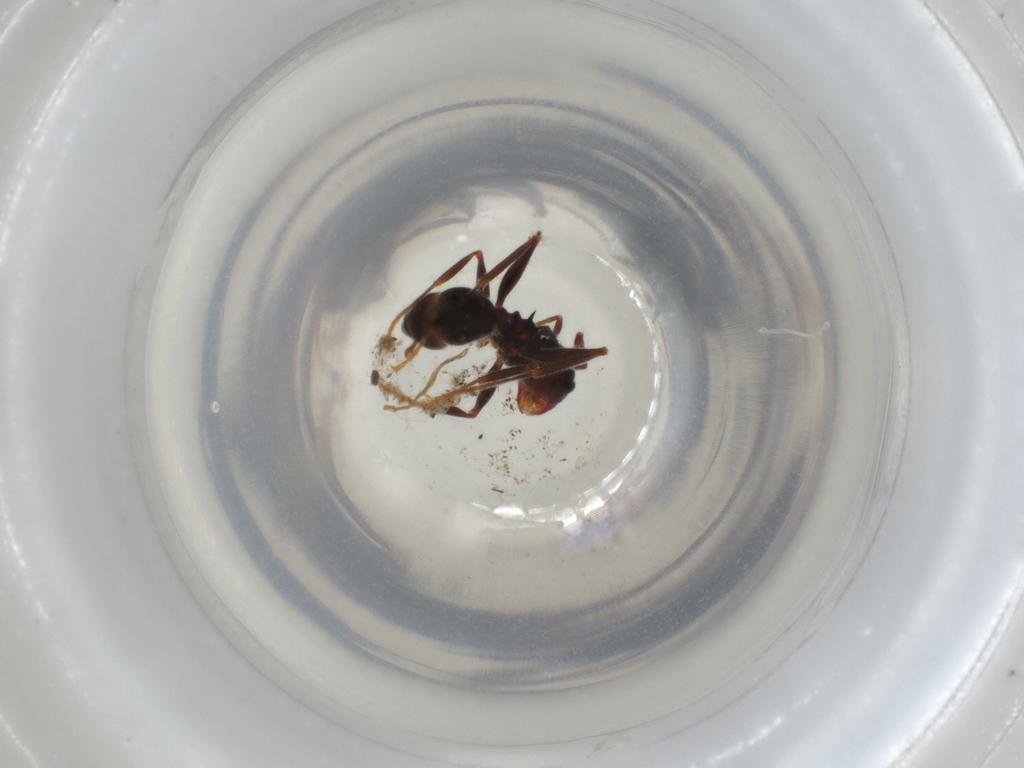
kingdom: Animalia
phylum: Arthropoda
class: Insecta
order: Hymenoptera
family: Formicidae
